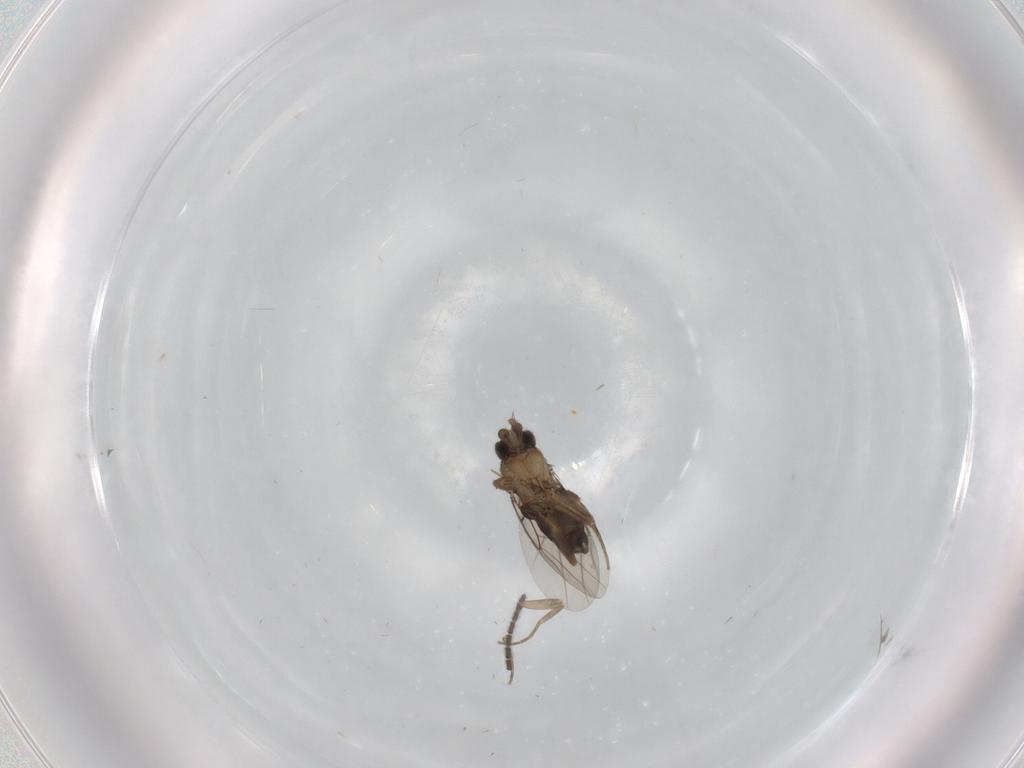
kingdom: Animalia
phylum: Arthropoda
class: Insecta
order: Diptera
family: Phoridae
